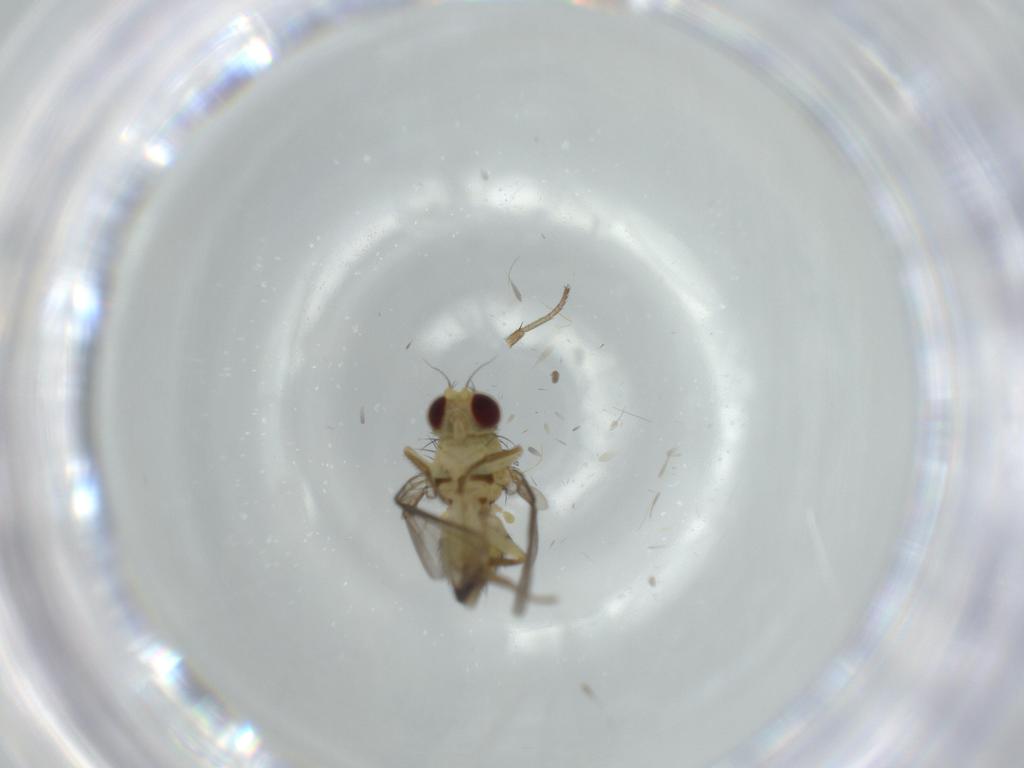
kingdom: Animalia
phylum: Arthropoda
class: Insecta
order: Diptera
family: Agromyzidae
